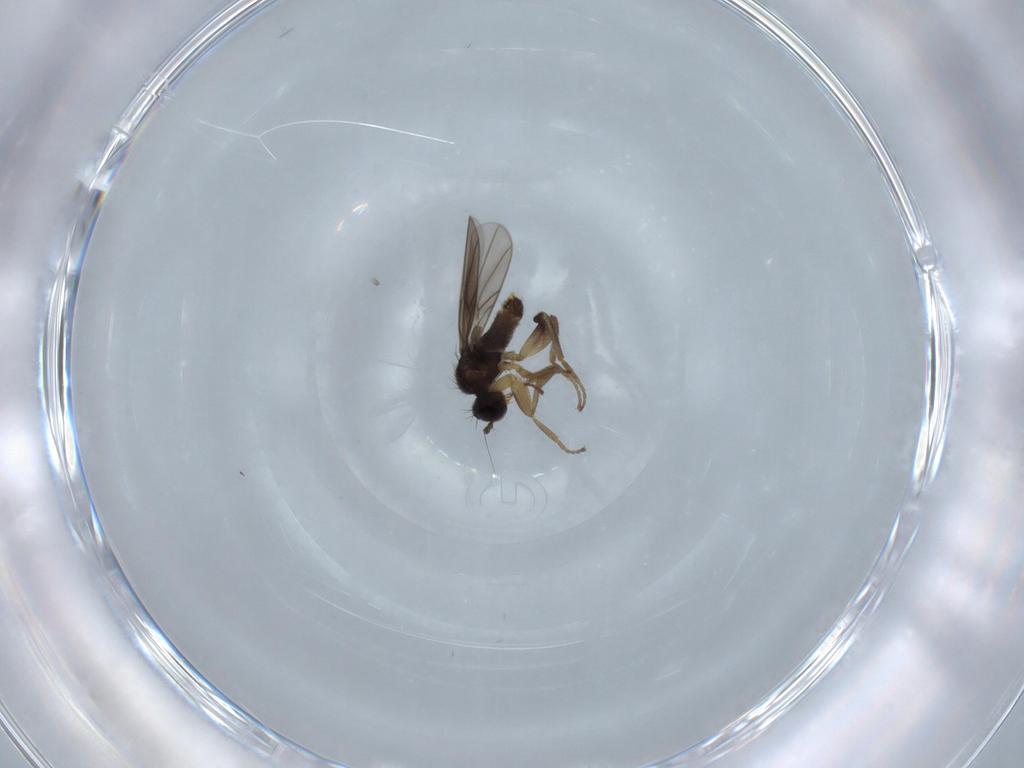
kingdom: Animalia
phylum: Arthropoda
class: Insecta
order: Diptera
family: Hybotidae
